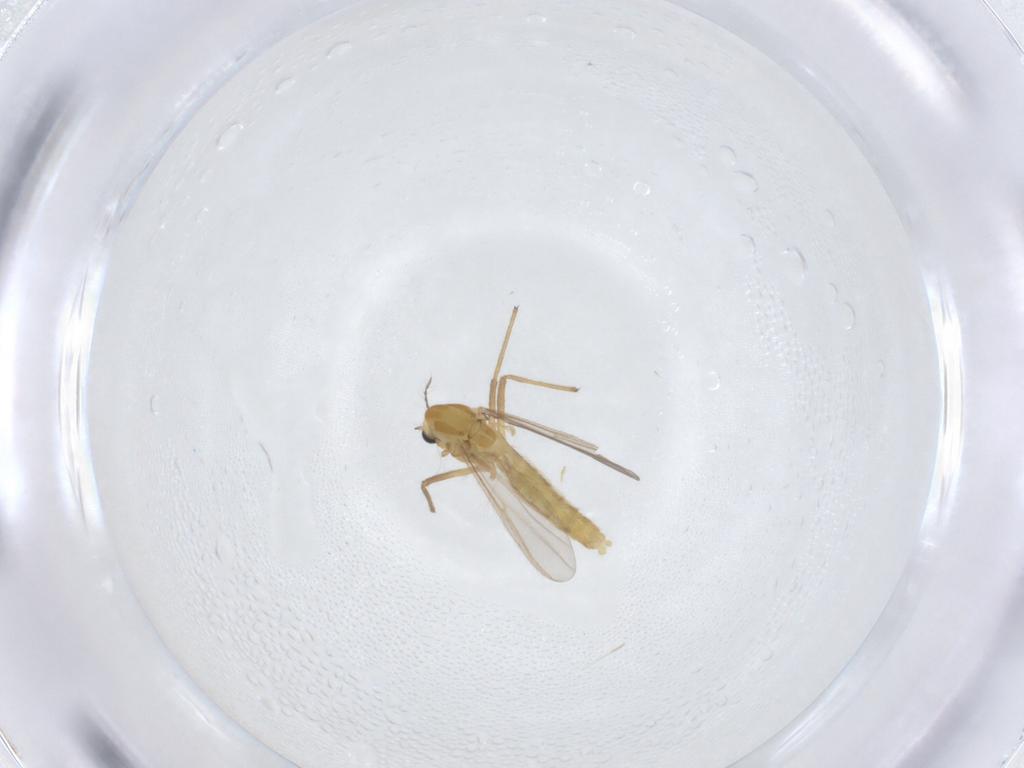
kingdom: Animalia
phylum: Arthropoda
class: Insecta
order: Diptera
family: Chironomidae
